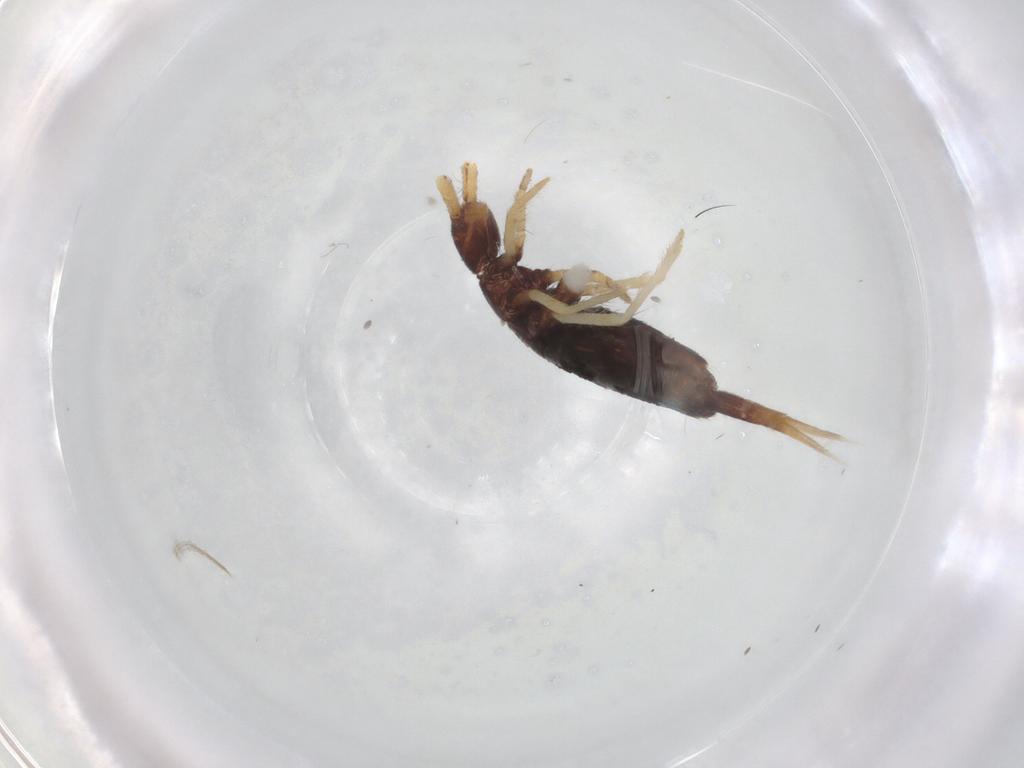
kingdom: Animalia
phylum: Arthropoda
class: Collembola
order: Entomobryomorpha
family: Entomobryidae
